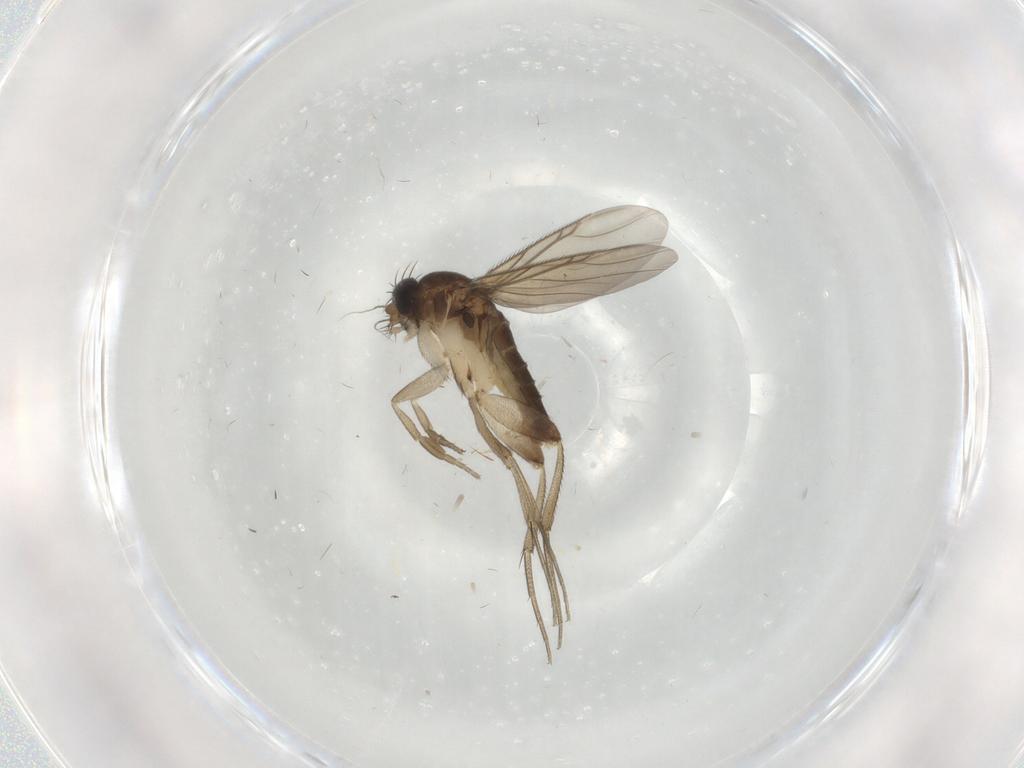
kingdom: Animalia
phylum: Arthropoda
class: Insecta
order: Diptera
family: Phoridae
